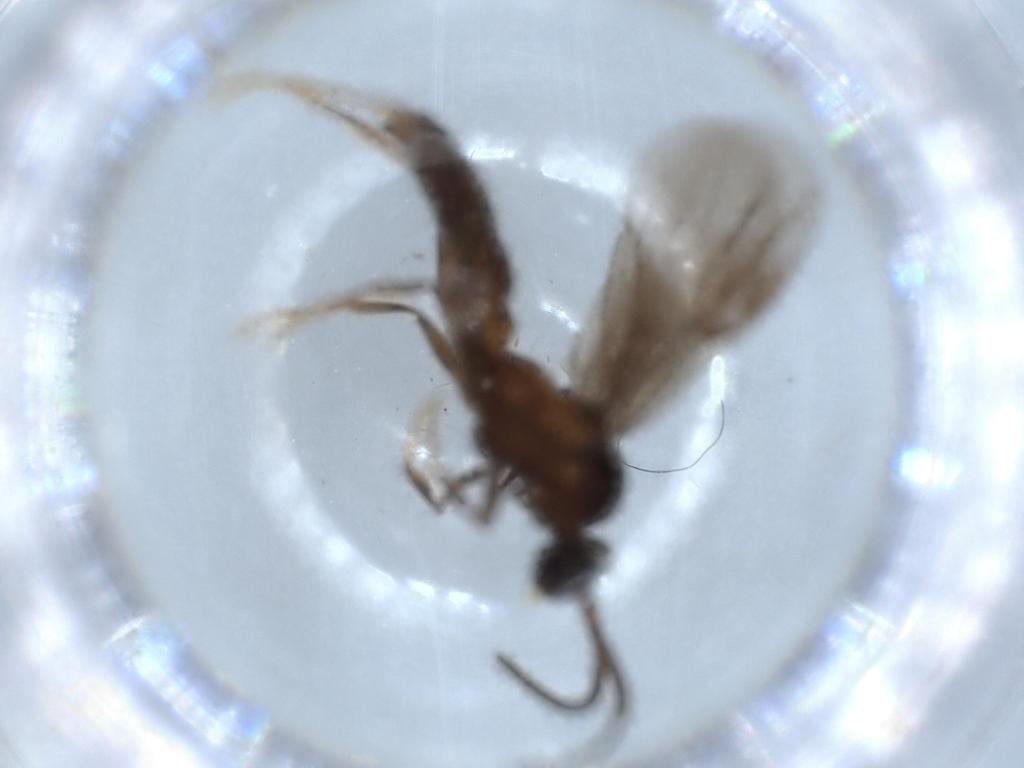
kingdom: Animalia
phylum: Arthropoda
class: Insecta
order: Hymenoptera
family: Formicidae
